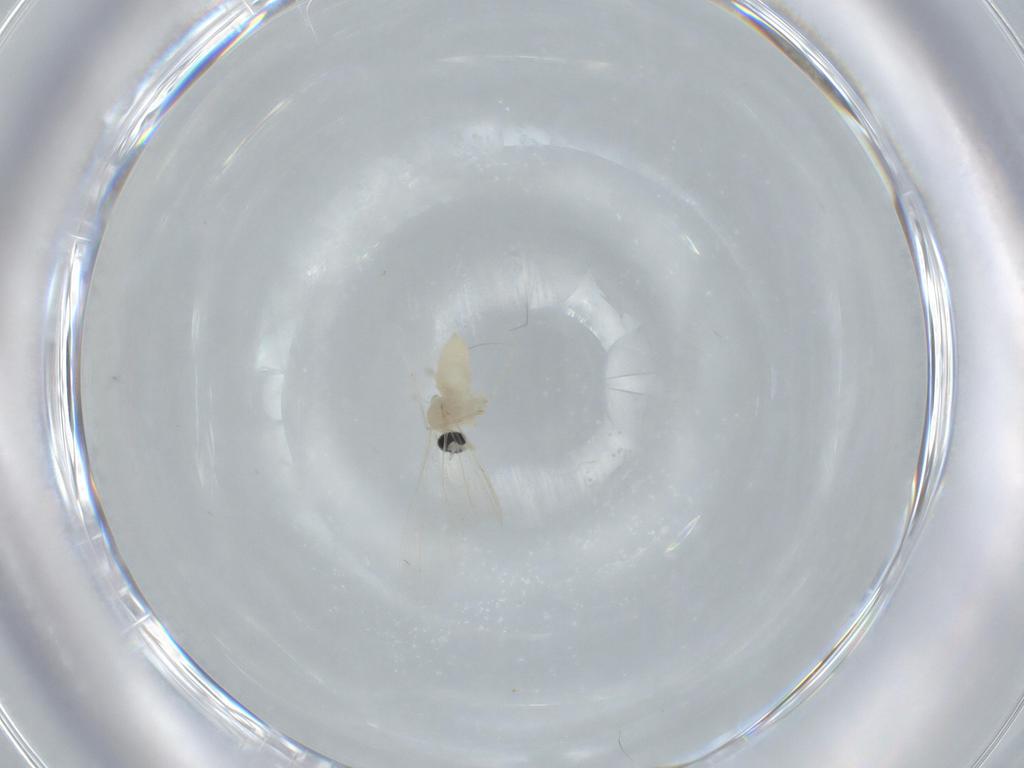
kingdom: Animalia
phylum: Arthropoda
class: Insecta
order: Diptera
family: Cecidomyiidae
